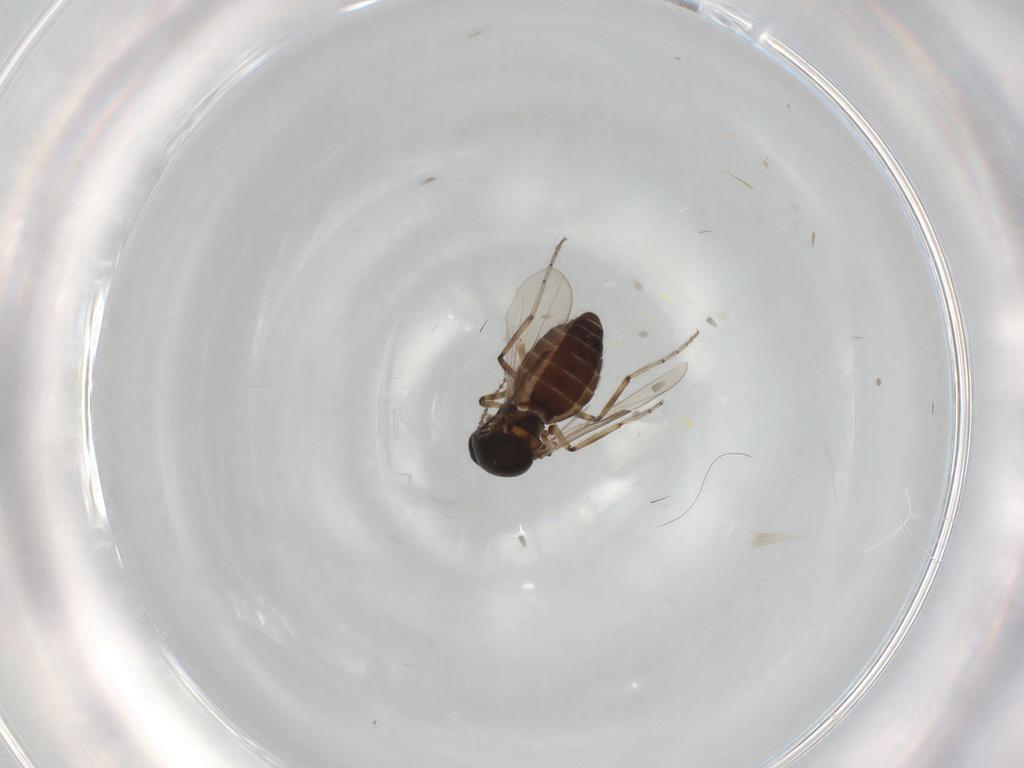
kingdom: Animalia
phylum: Arthropoda
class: Insecta
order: Diptera
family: Ceratopogonidae
